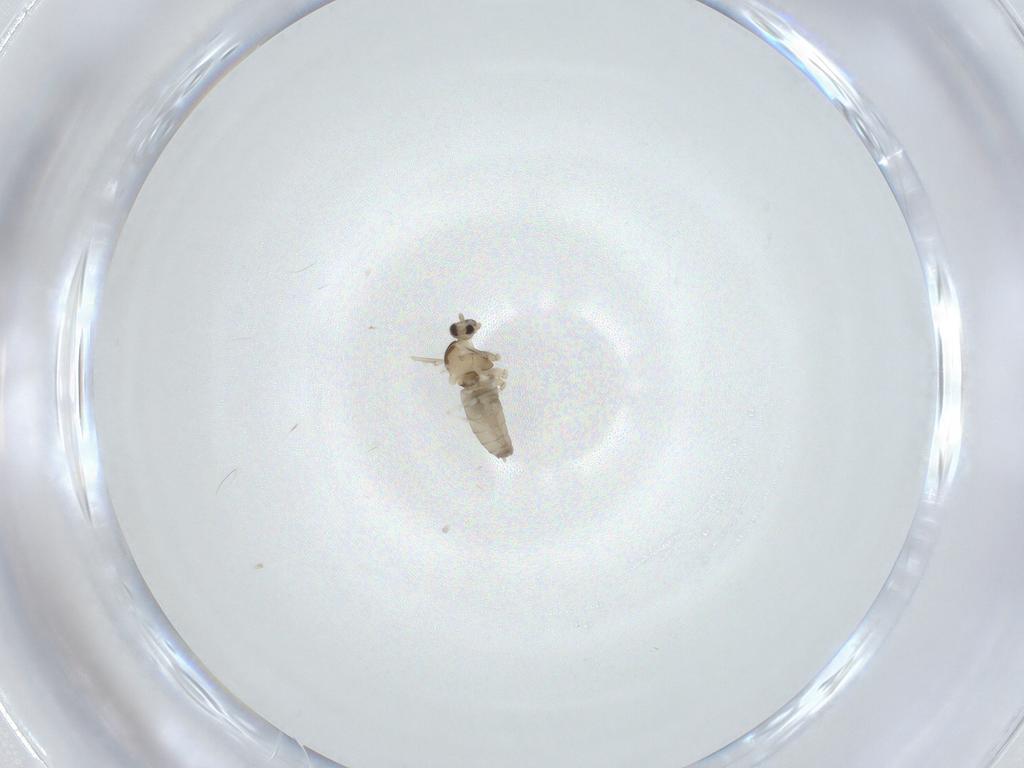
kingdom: Animalia
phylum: Arthropoda
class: Insecta
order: Diptera
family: Cecidomyiidae
